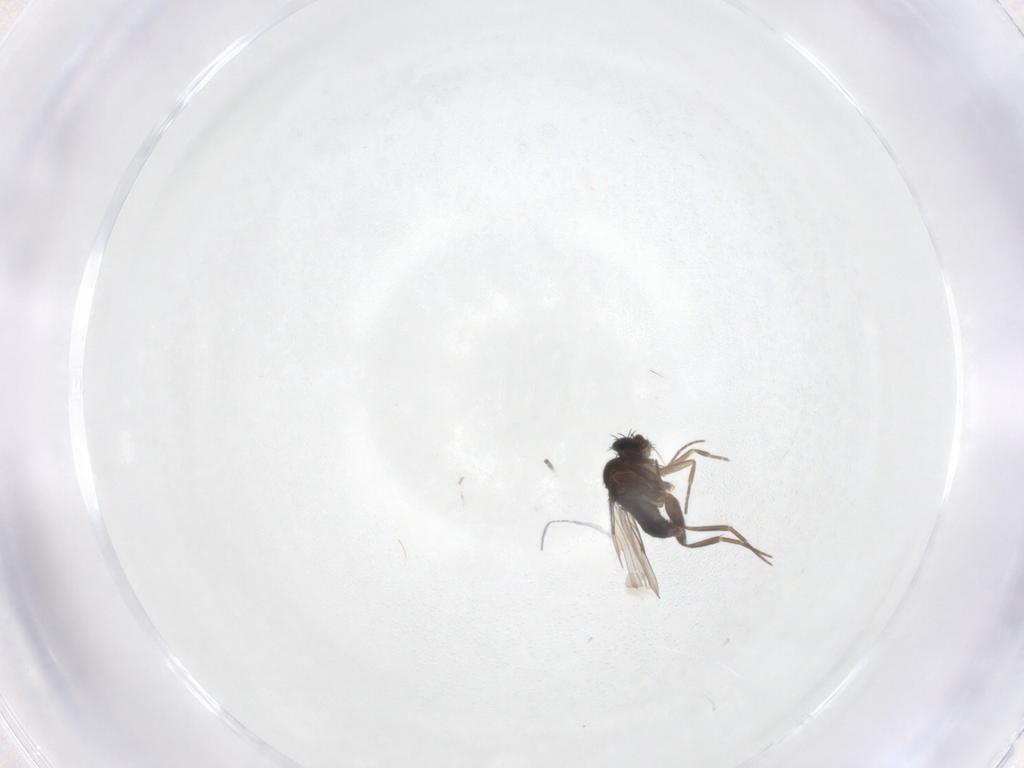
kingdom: Animalia
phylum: Arthropoda
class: Insecta
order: Diptera
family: Phoridae
